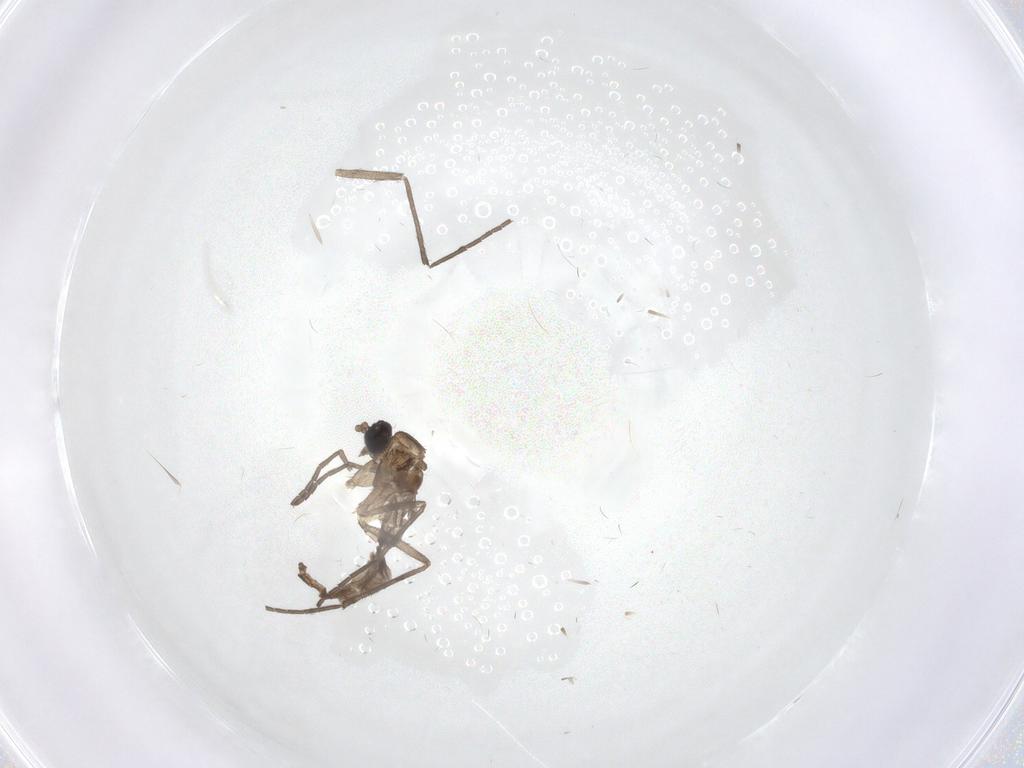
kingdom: Animalia
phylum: Arthropoda
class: Insecta
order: Diptera
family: Sciaridae
